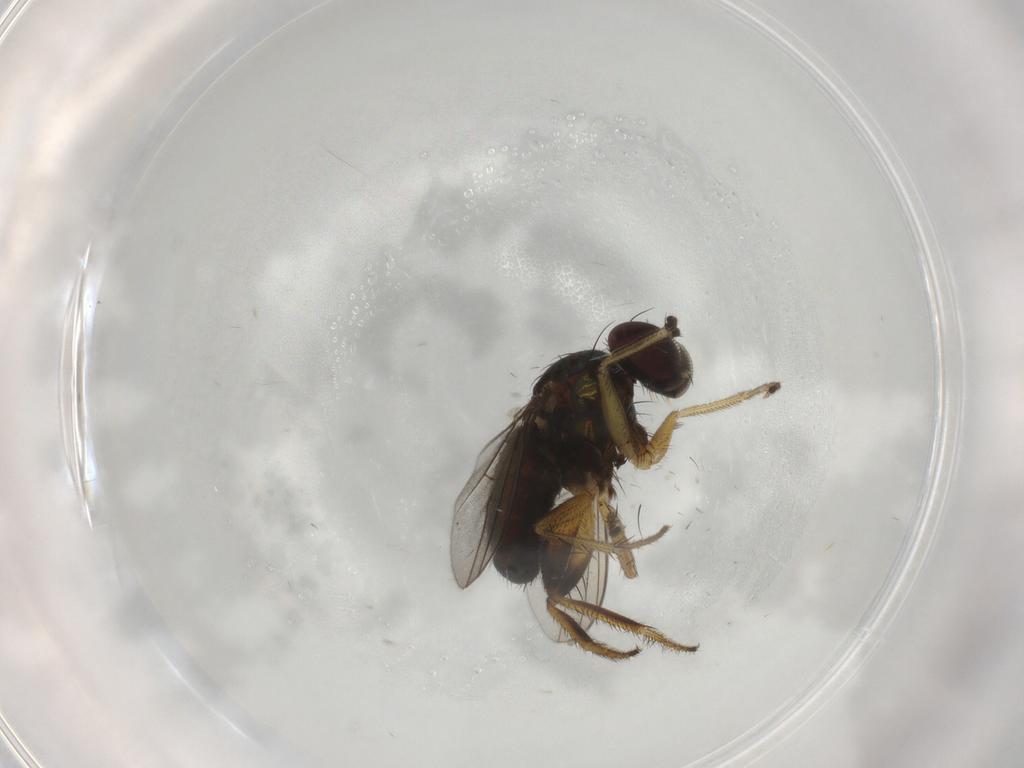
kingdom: Animalia
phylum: Arthropoda
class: Insecta
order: Diptera
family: Dolichopodidae
